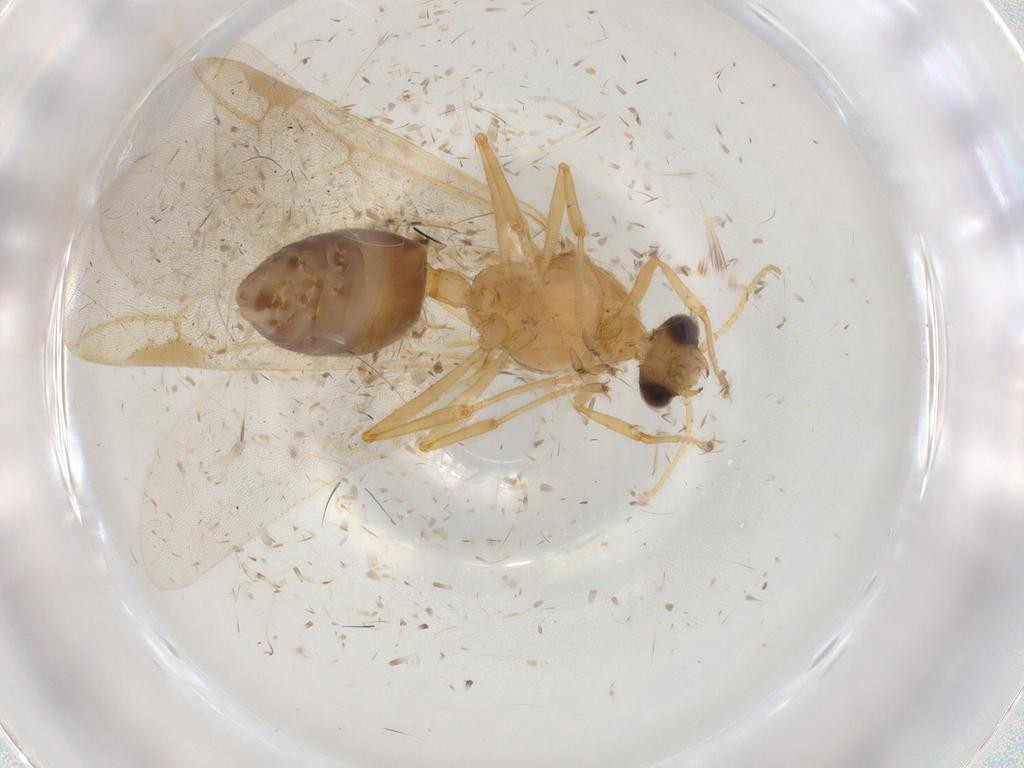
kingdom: Animalia
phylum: Arthropoda
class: Insecta
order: Hymenoptera
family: Formicidae
